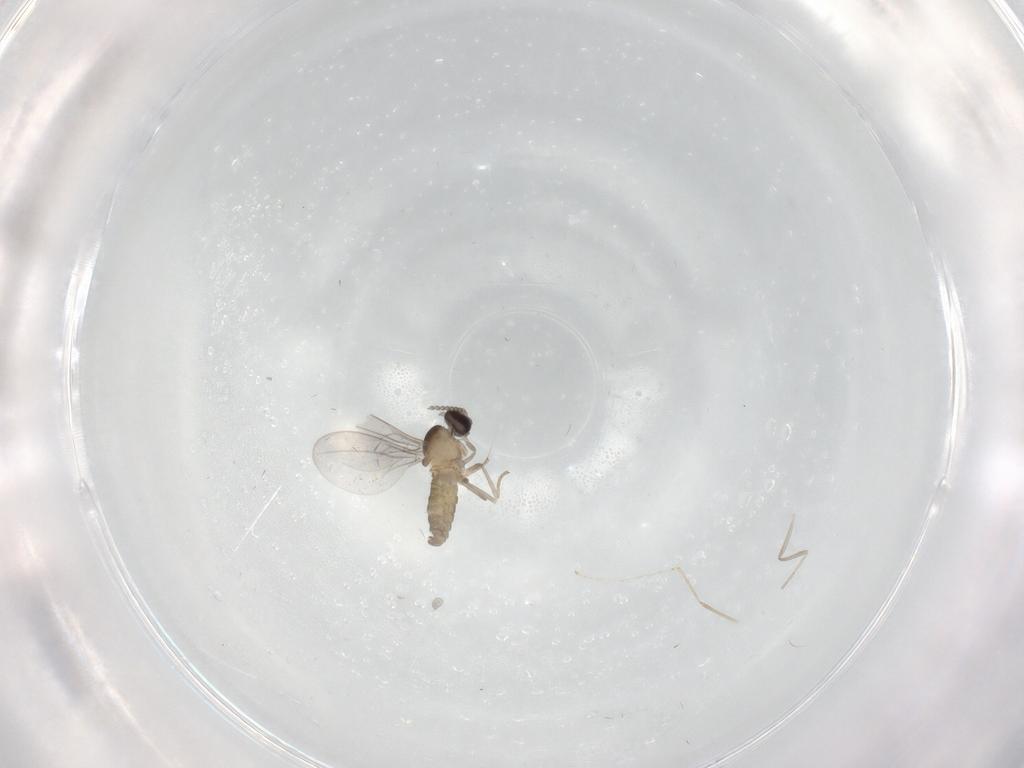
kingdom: Animalia
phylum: Arthropoda
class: Insecta
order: Diptera
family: Cecidomyiidae
